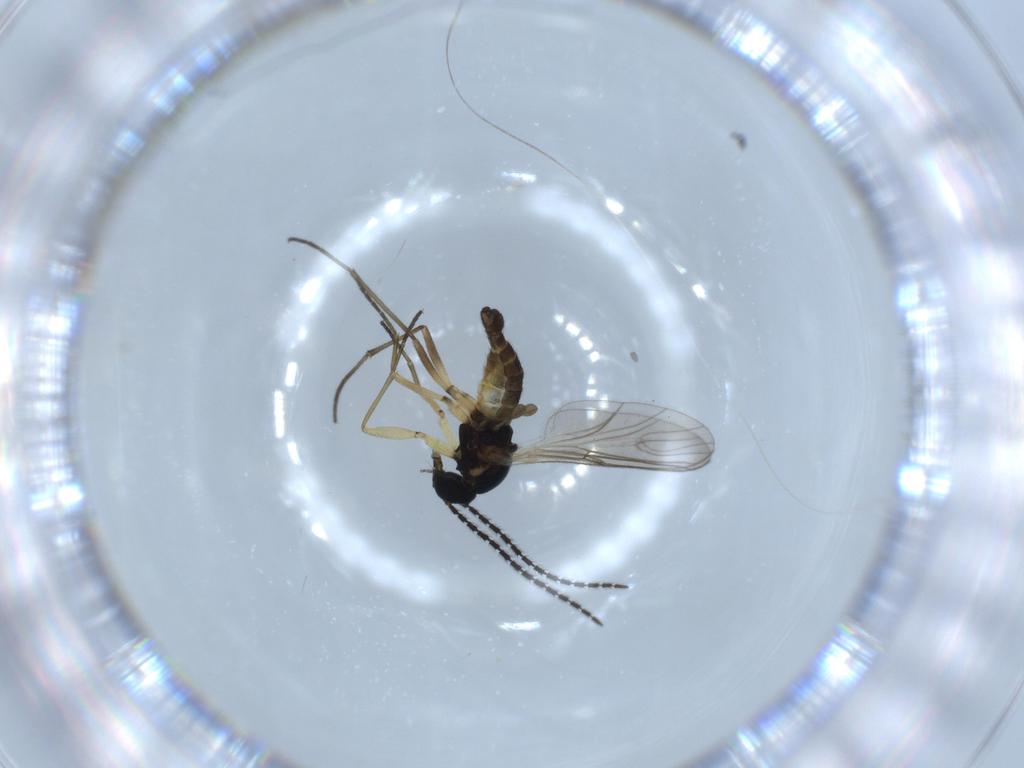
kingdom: Animalia
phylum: Arthropoda
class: Insecta
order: Diptera
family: Sciaridae
